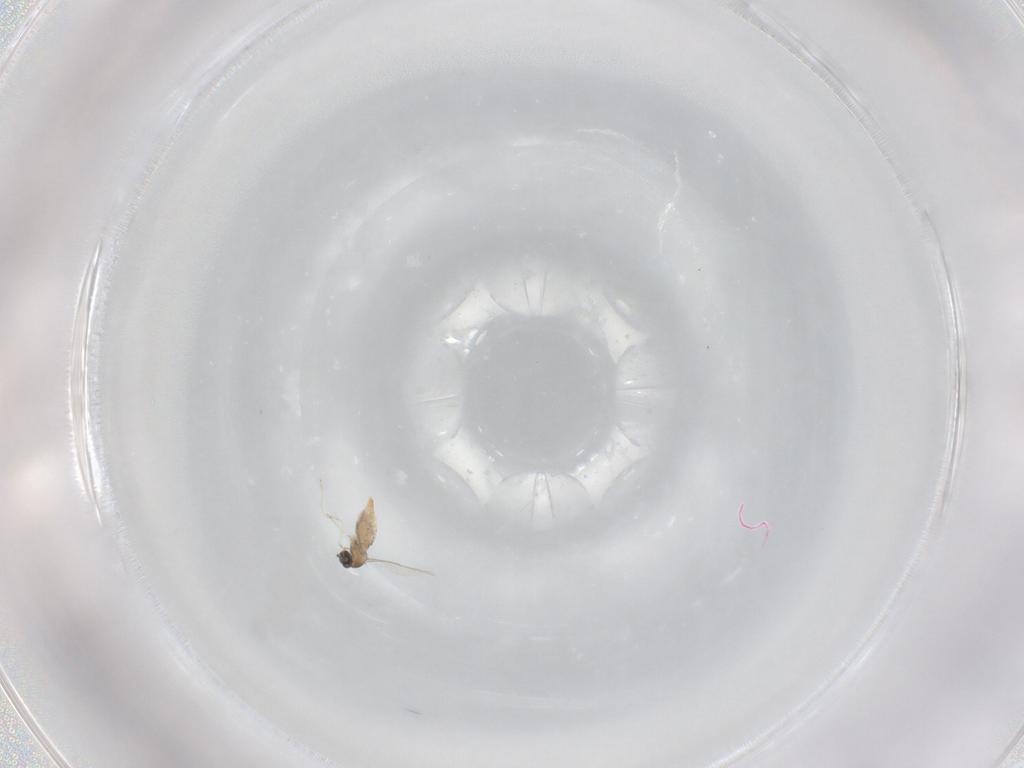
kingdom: Animalia
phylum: Arthropoda
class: Insecta
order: Diptera
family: Cecidomyiidae
